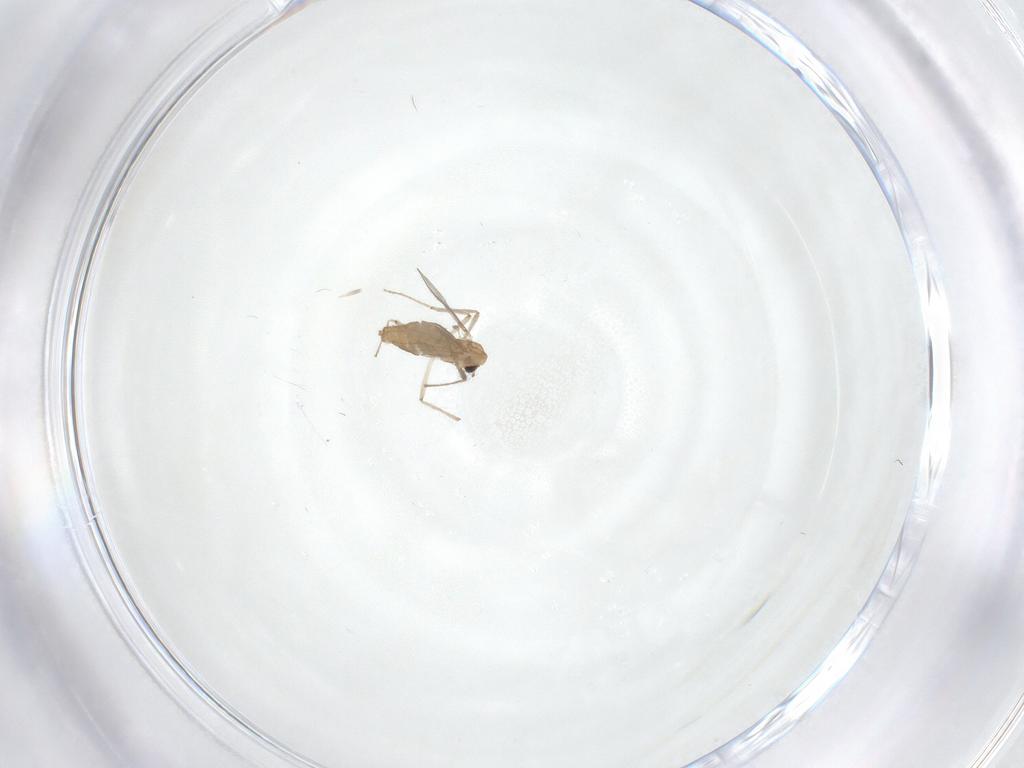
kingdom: Animalia
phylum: Arthropoda
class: Insecta
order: Diptera
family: Chironomidae
